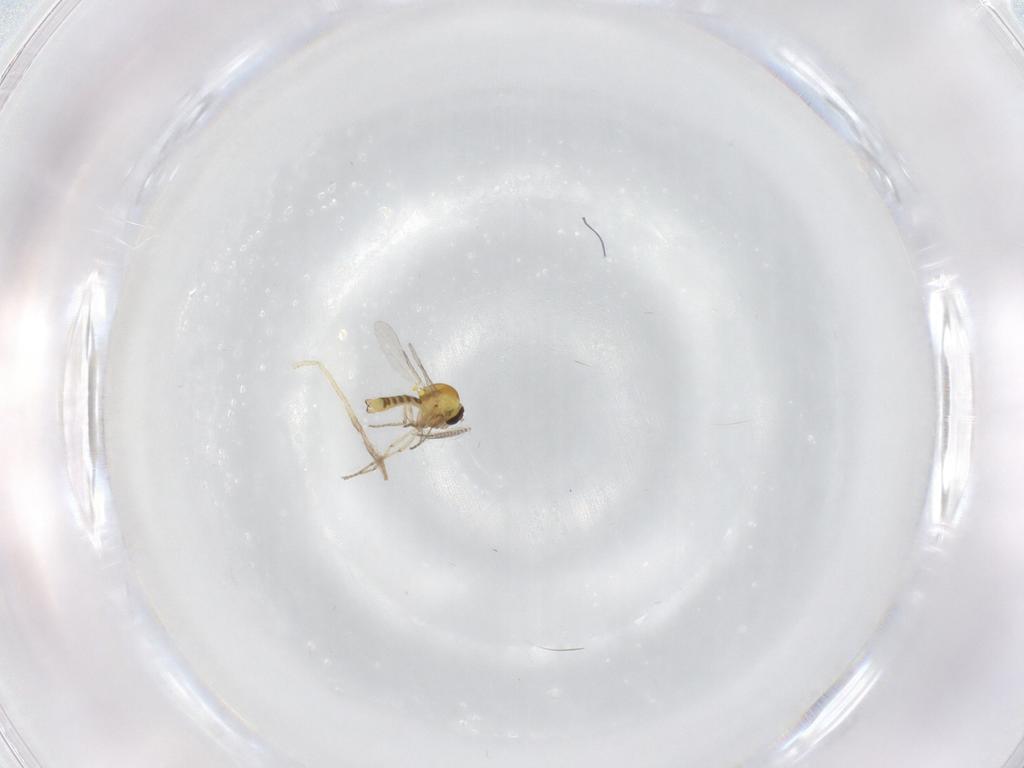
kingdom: Animalia
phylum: Arthropoda
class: Insecta
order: Diptera
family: Chironomidae
